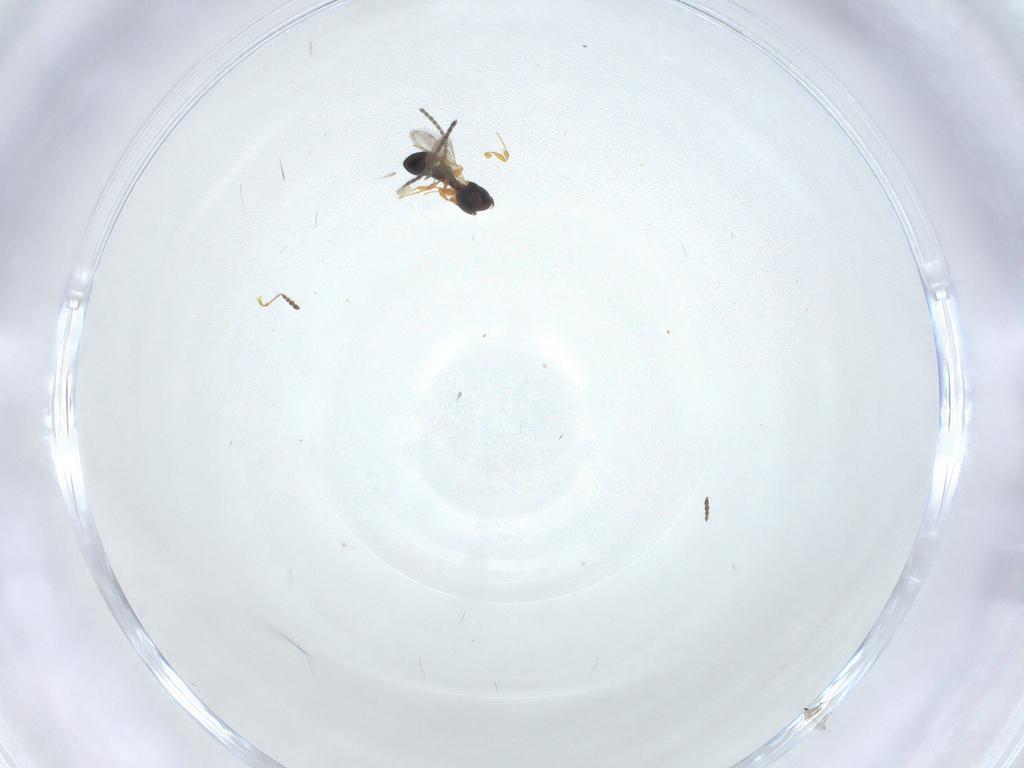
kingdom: Animalia
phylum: Arthropoda
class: Insecta
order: Hymenoptera
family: Platygastridae
